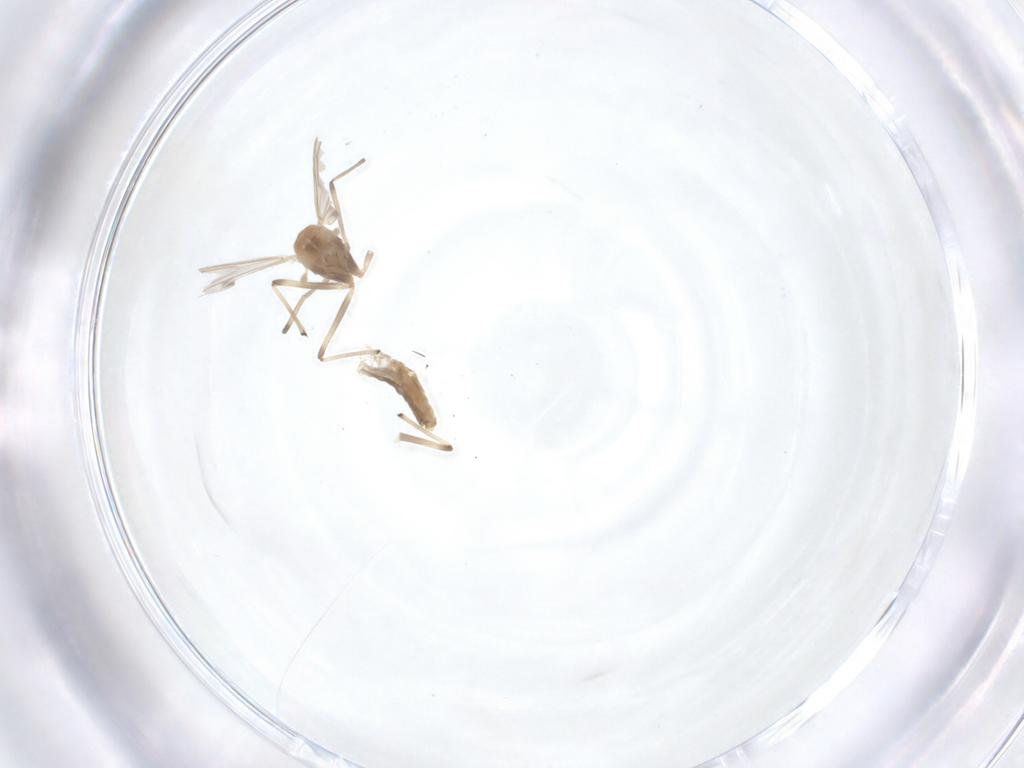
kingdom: Animalia
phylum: Arthropoda
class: Insecta
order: Diptera
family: Chironomidae
